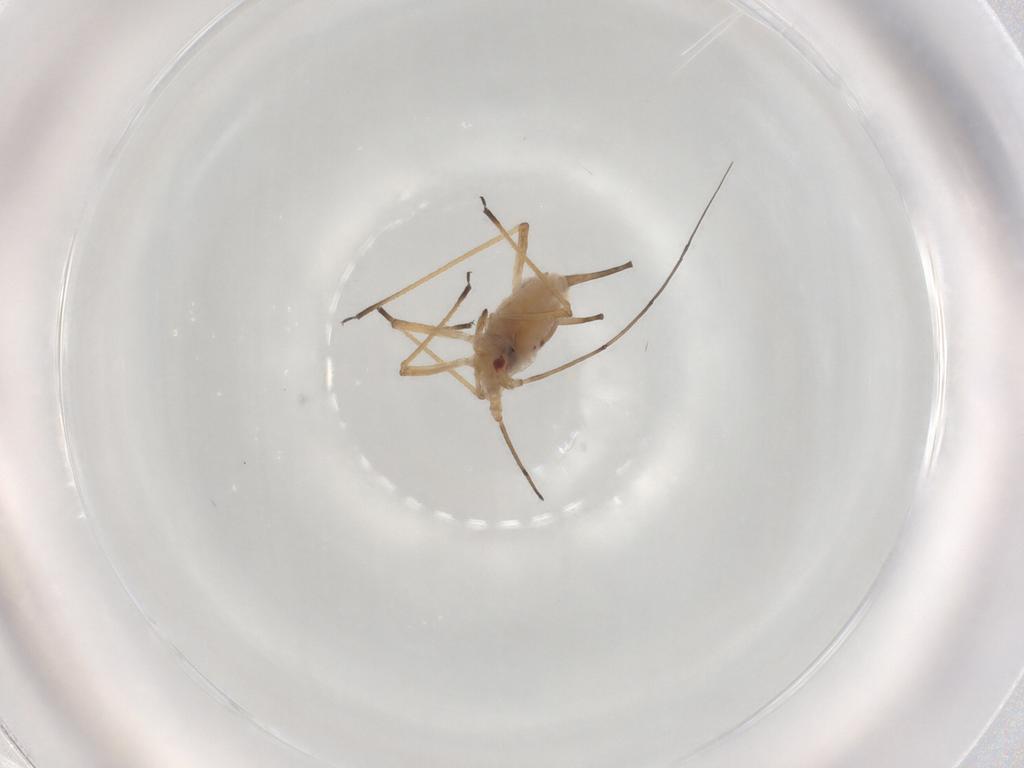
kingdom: Animalia
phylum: Arthropoda
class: Insecta
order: Hemiptera
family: Aphididae
